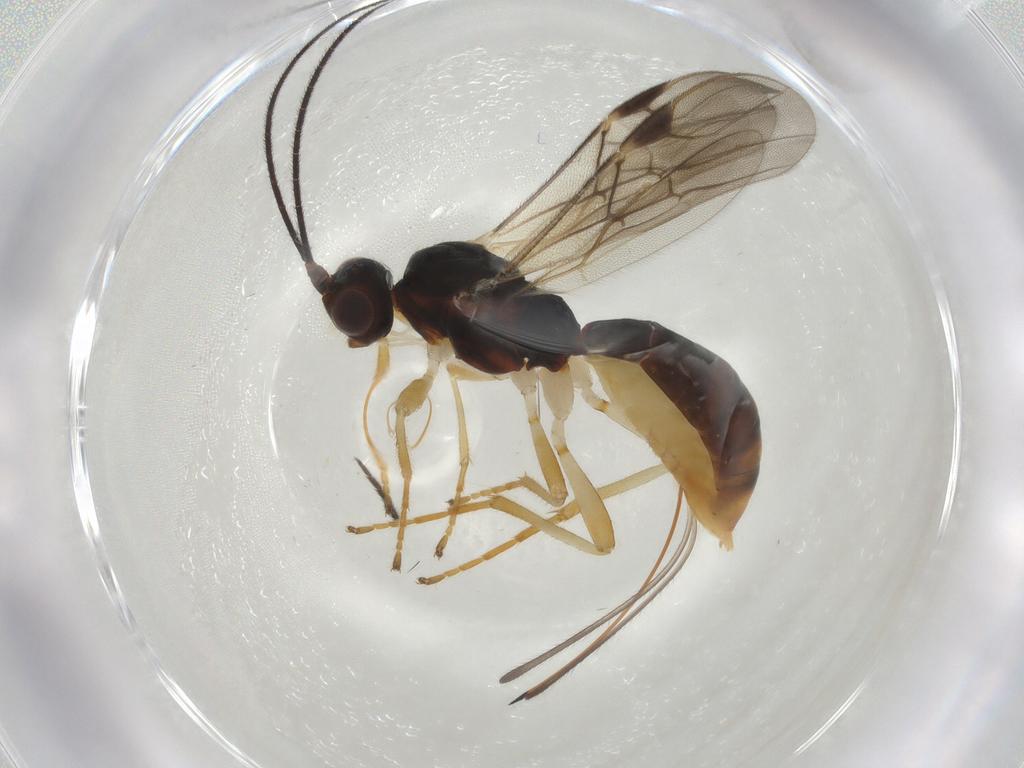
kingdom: Animalia
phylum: Arthropoda
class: Insecta
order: Hymenoptera
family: Braconidae
